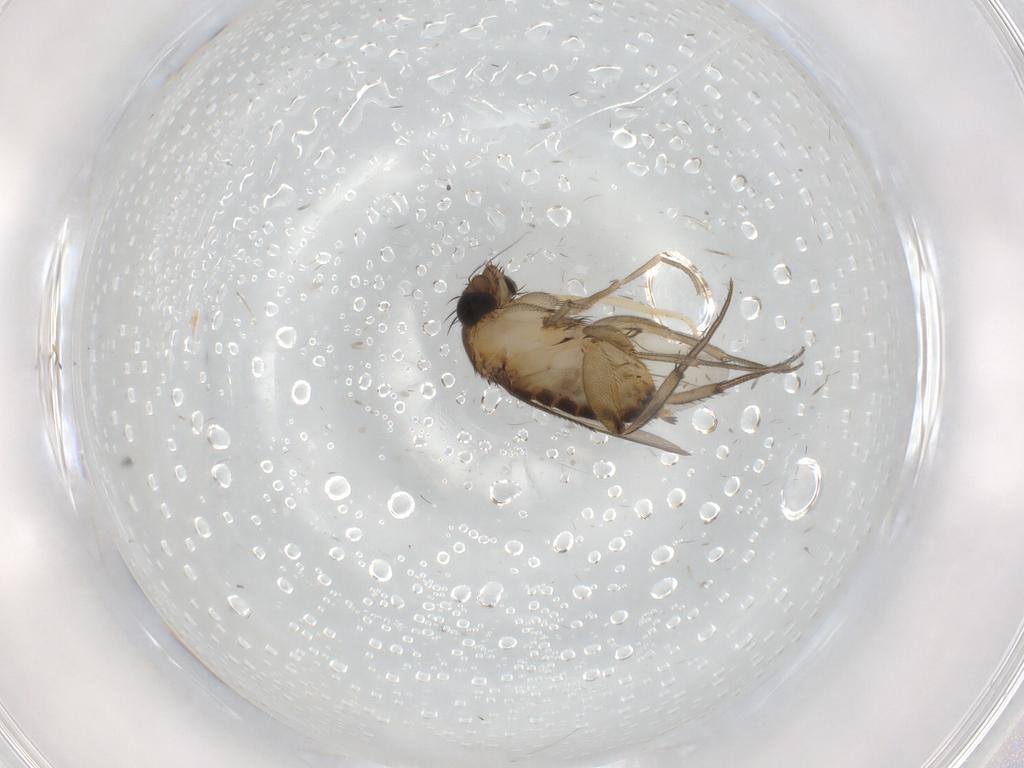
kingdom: Animalia
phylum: Arthropoda
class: Insecta
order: Diptera
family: Phoridae
